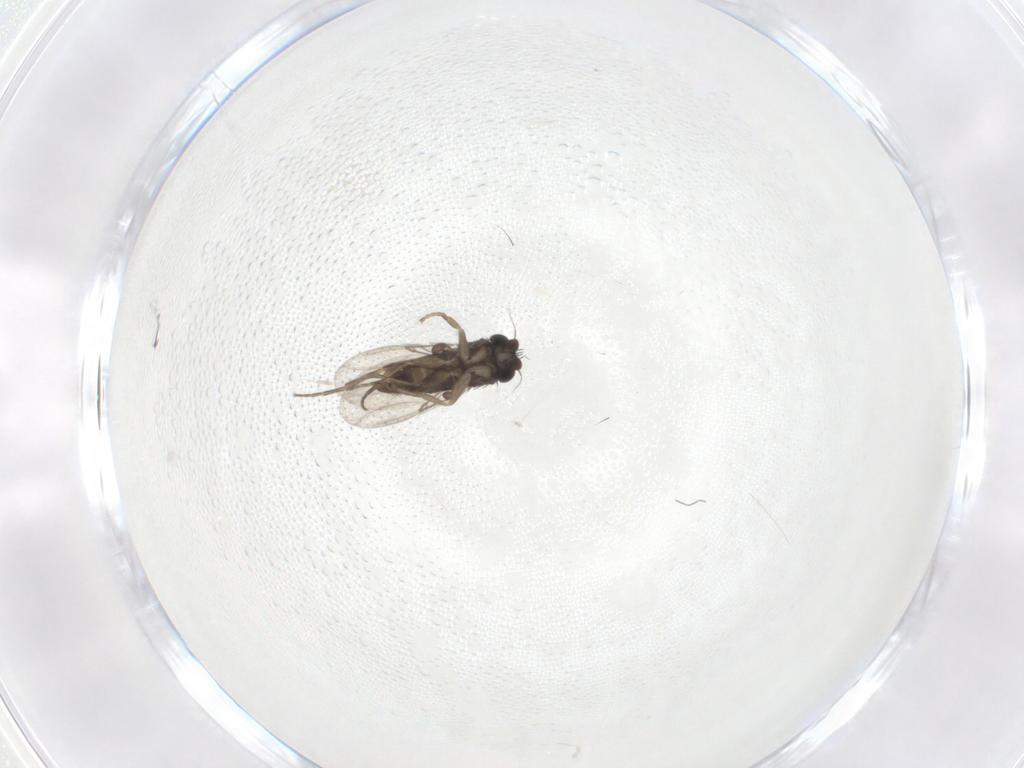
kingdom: Animalia
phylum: Arthropoda
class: Insecta
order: Diptera
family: Phoridae
